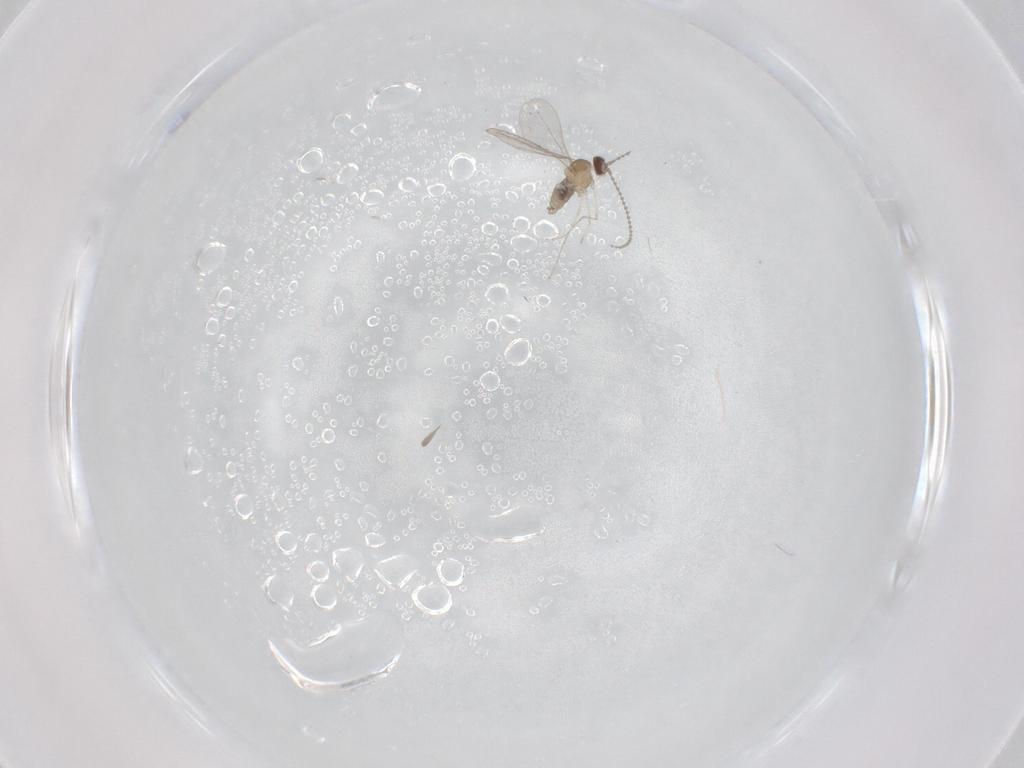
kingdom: Animalia
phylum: Arthropoda
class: Insecta
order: Diptera
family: Cecidomyiidae
